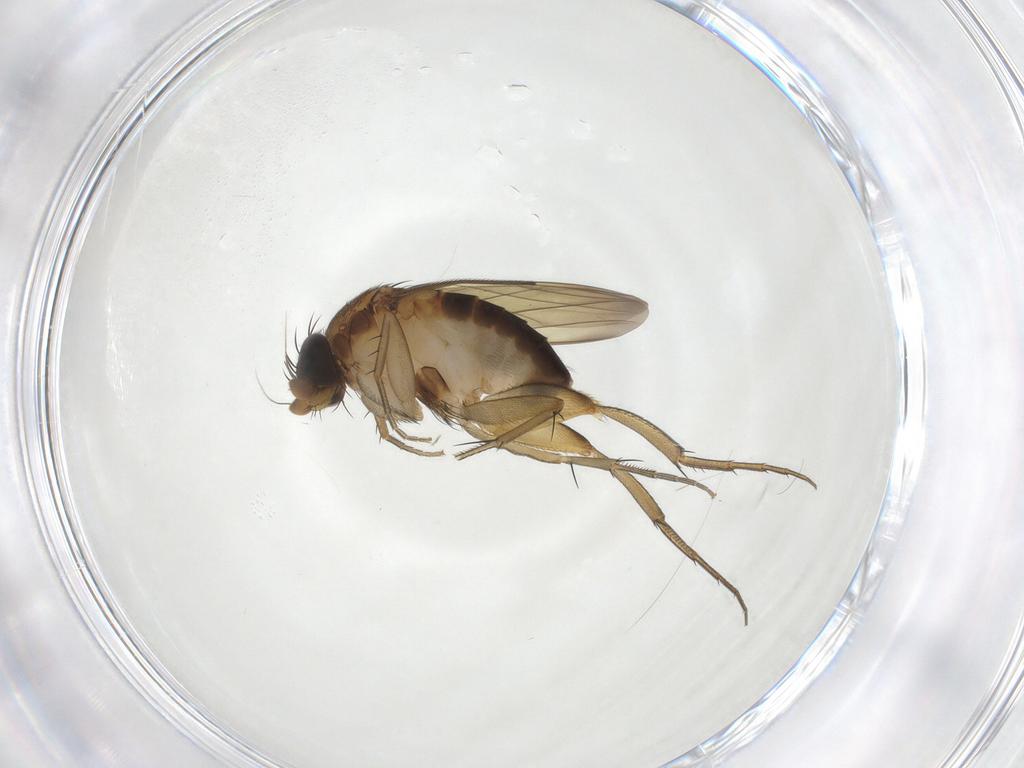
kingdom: Animalia
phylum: Arthropoda
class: Insecta
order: Diptera
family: Phoridae
